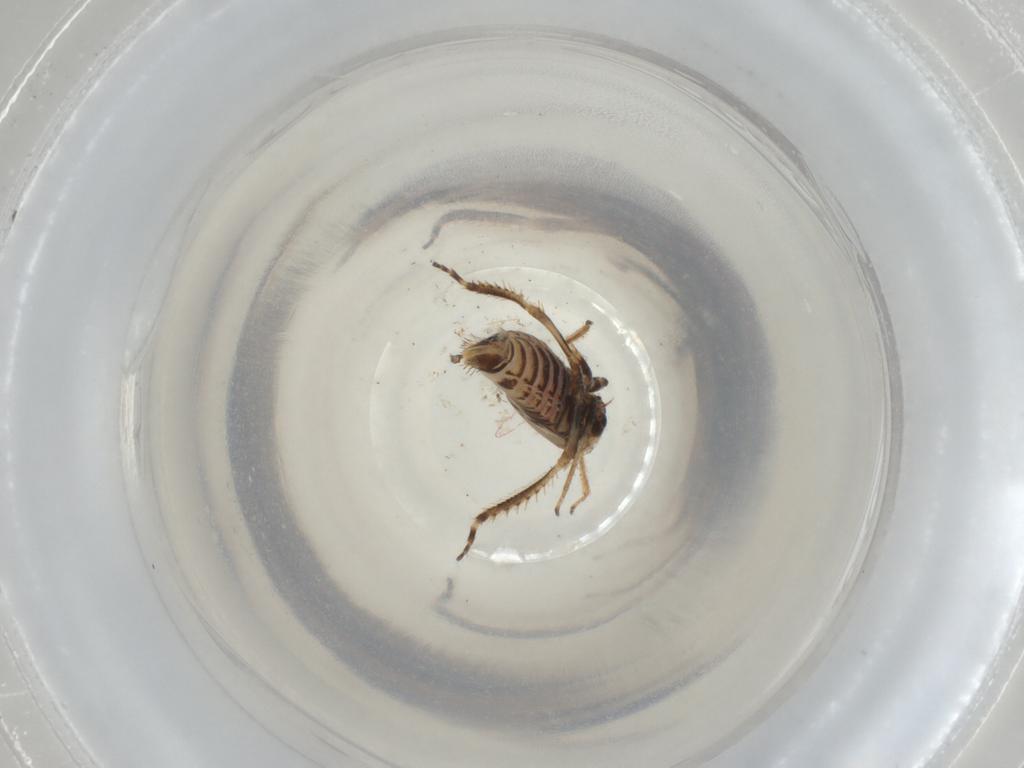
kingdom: Animalia
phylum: Arthropoda
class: Insecta
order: Hemiptera
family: Cicadellidae
